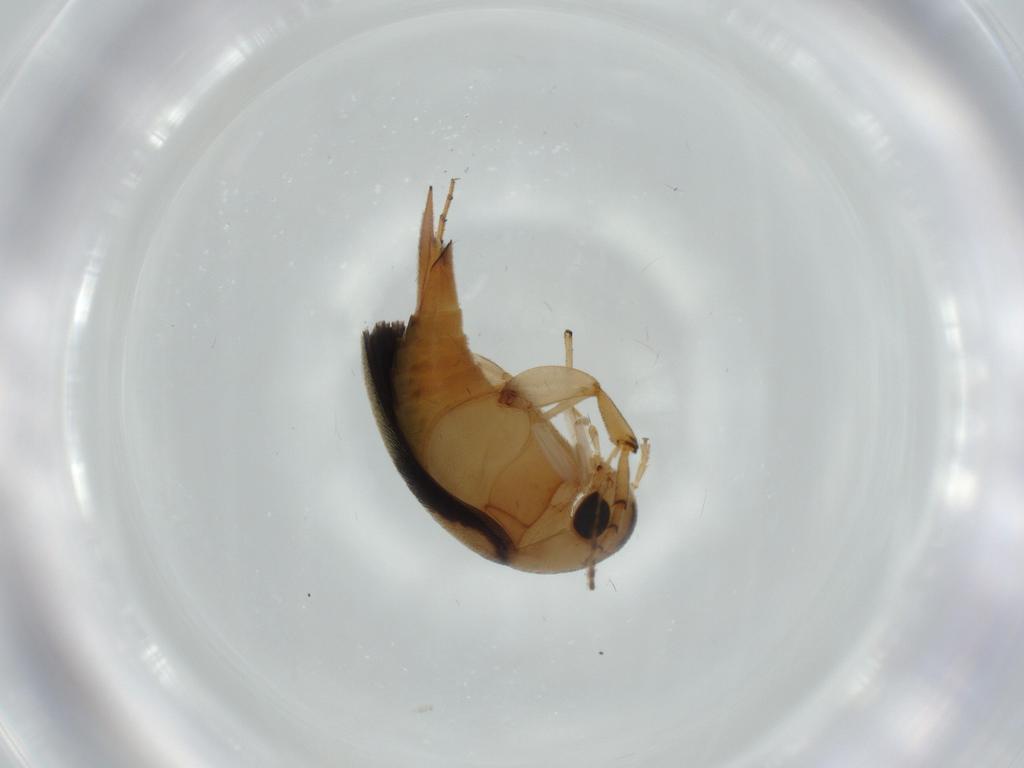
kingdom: Animalia
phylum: Arthropoda
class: Insecta
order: Coleoptera
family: Mordellidae
